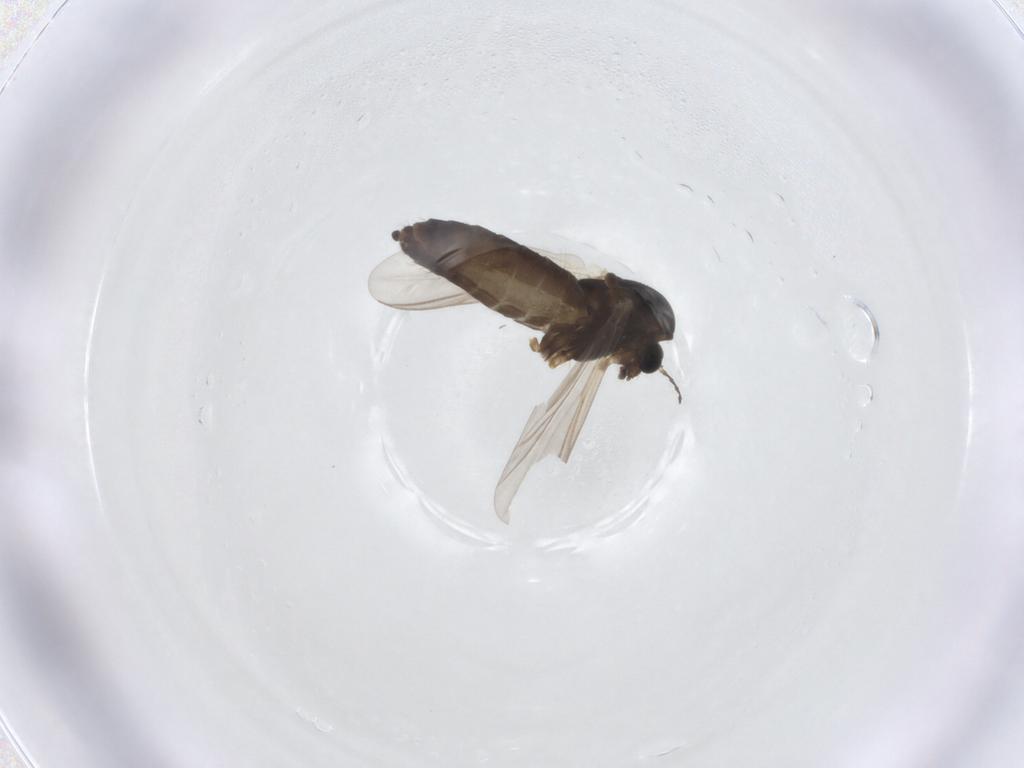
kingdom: Animalia
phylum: Arthropoda
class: Insecta
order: Diptera
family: Chironomidae
